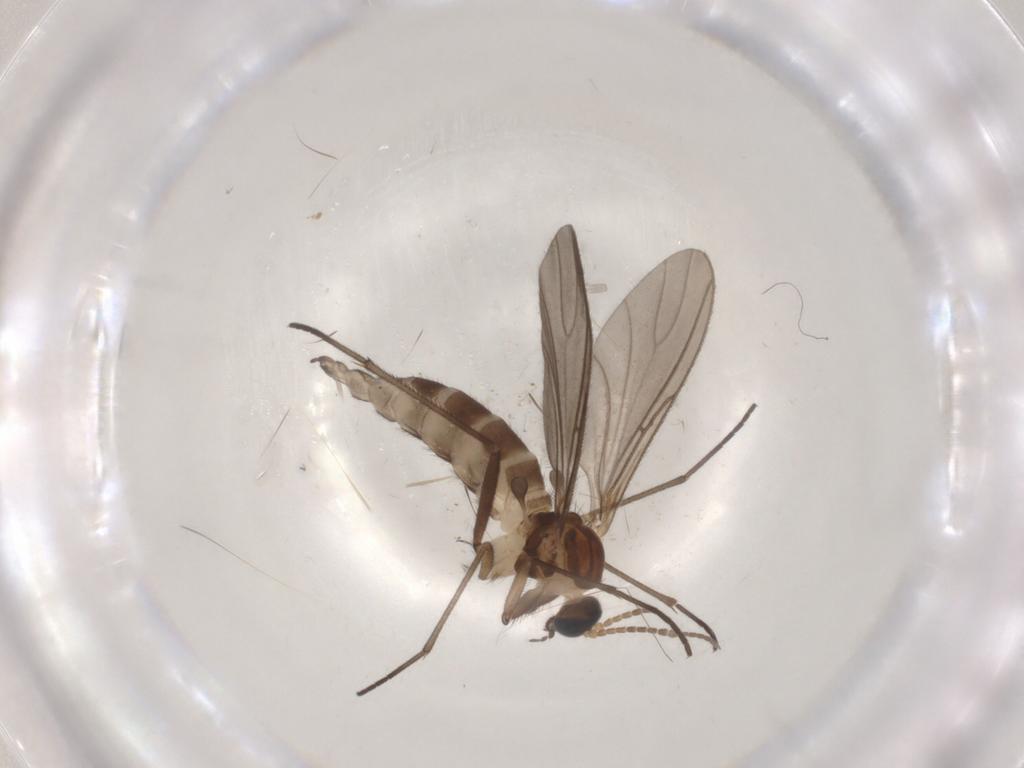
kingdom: Animalia
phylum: Arthropoda
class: Insecta
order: Diptera
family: Sciaridae
